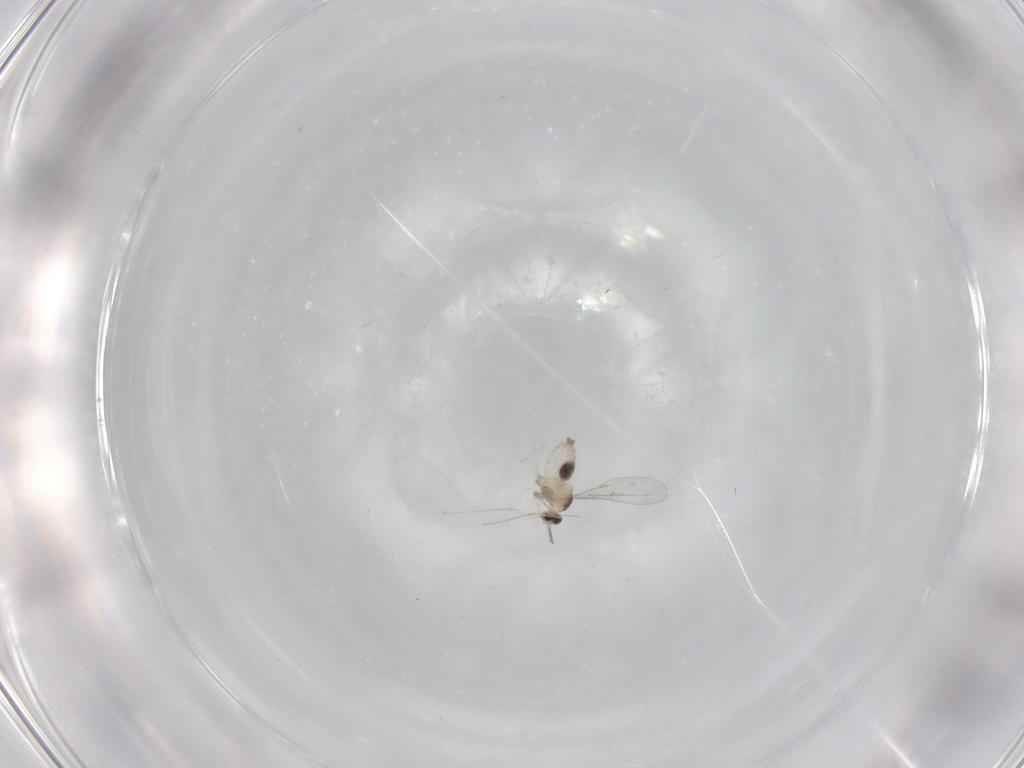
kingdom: Animalia
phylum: Arthropoda
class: Insecta
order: Diptera
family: Cecidomyiidae
